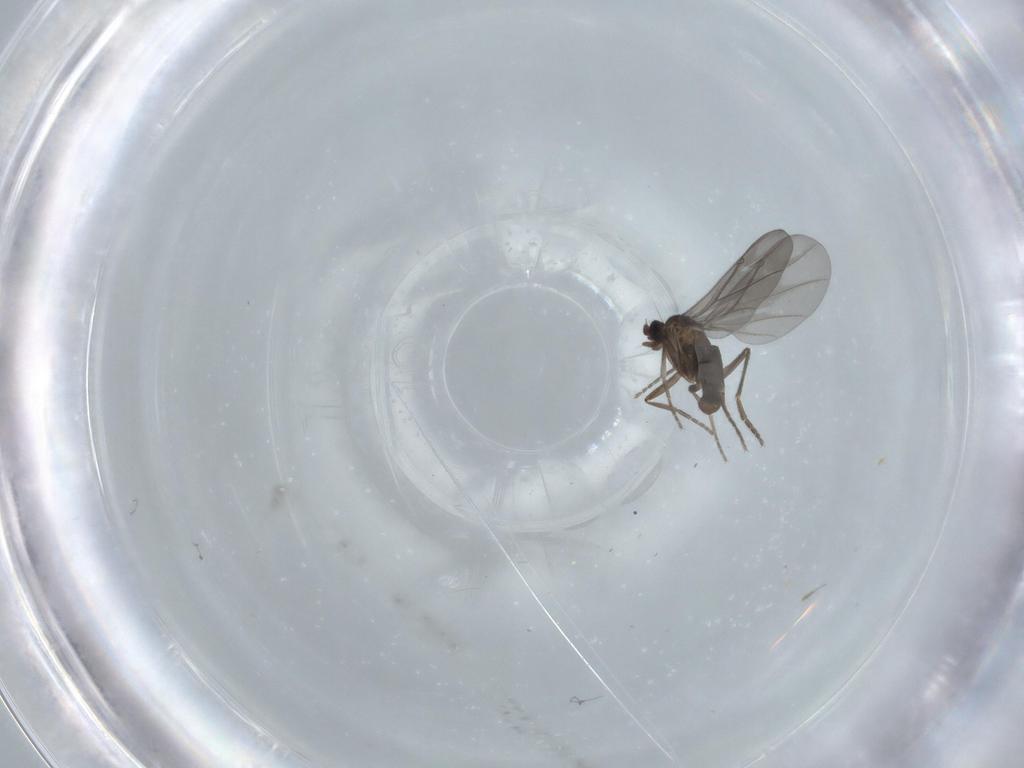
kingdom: Animalia
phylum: Arthropoda
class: Insecta
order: Diptera
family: Phoridae
